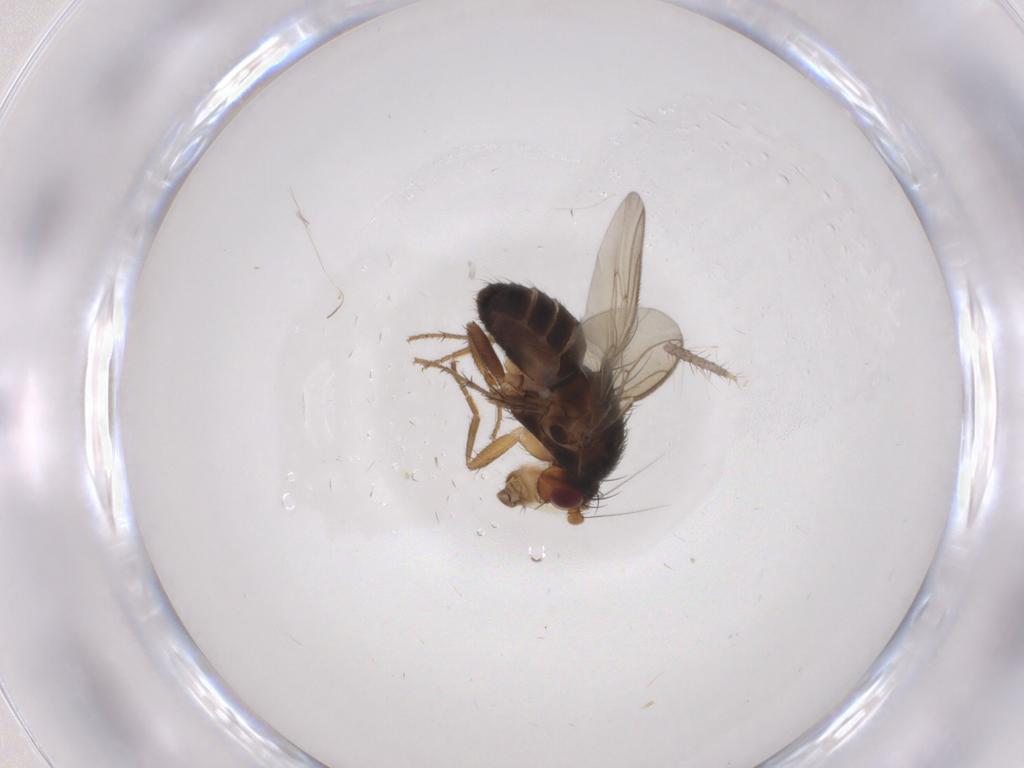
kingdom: Animalia
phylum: Arthropoda
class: Insecta
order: Diptera
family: Sphaeroceridae
